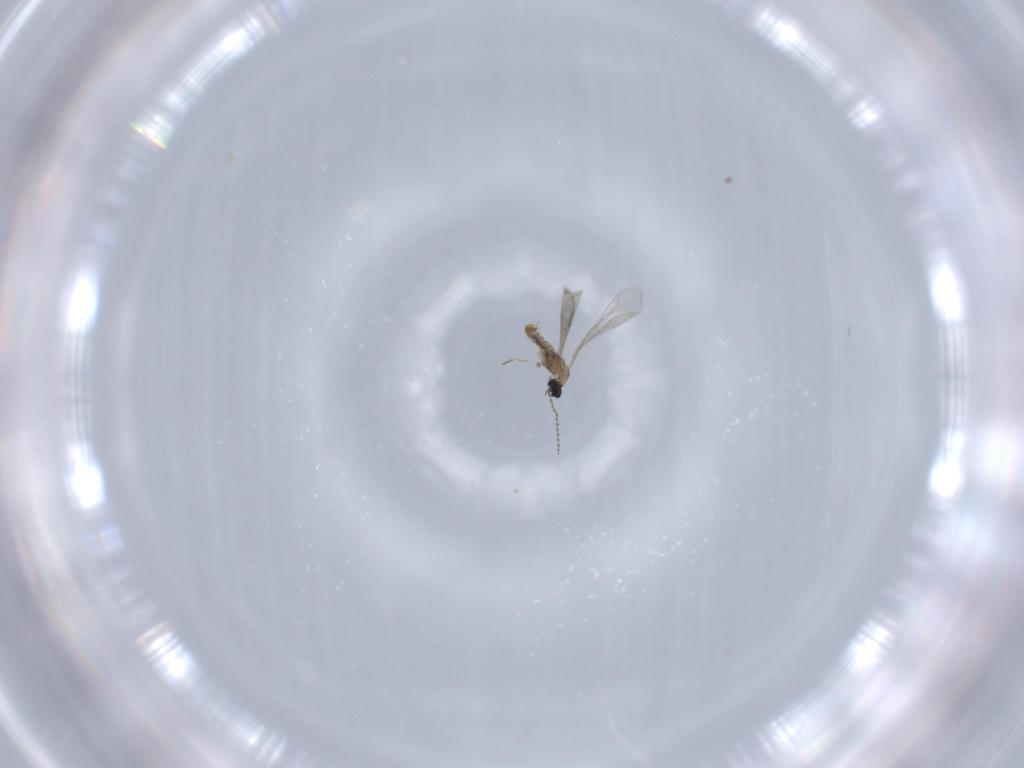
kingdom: Animalia
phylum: Arthropoda
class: Insecta
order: Diptera
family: Cecidomyiidae
